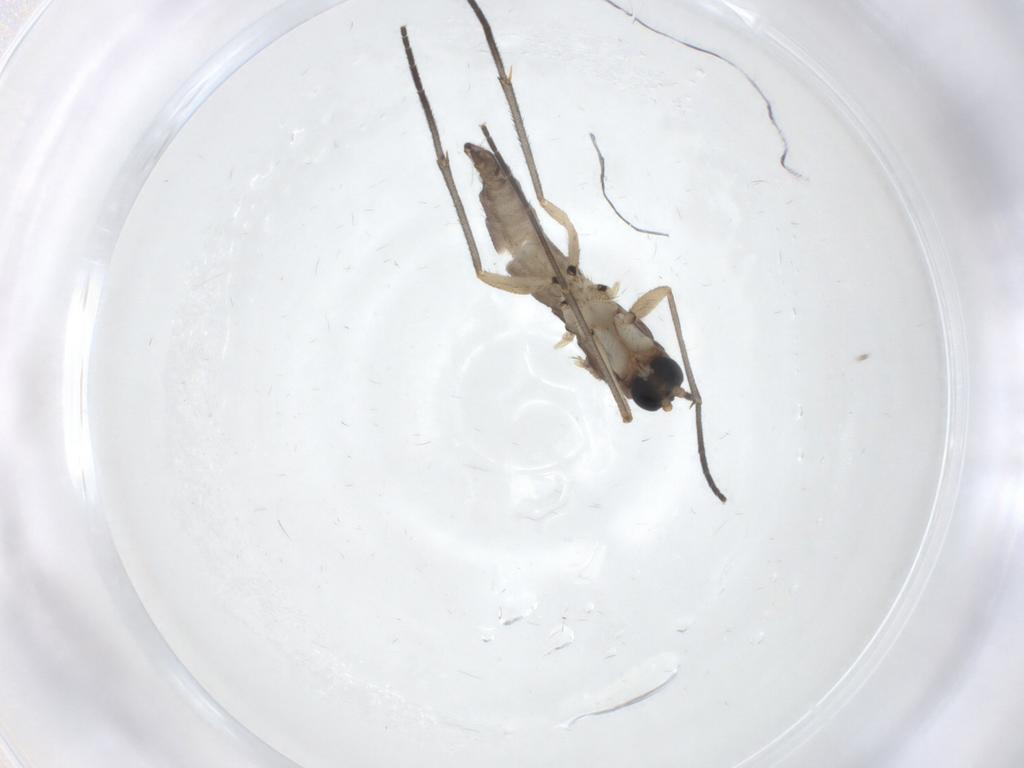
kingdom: Animalia
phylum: Arthropoda
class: Insecta
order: Diptera
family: Sciaridae
